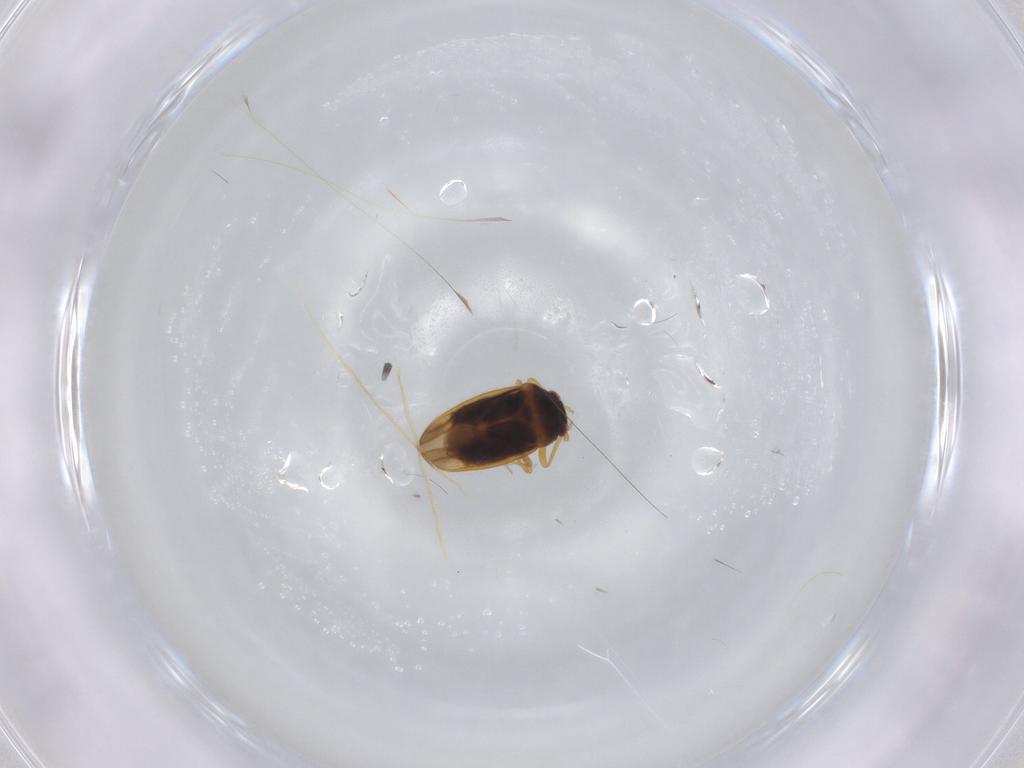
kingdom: Animalia
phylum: Arthropoda
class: Insecta
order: Hemiptera
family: Schizopteridae
